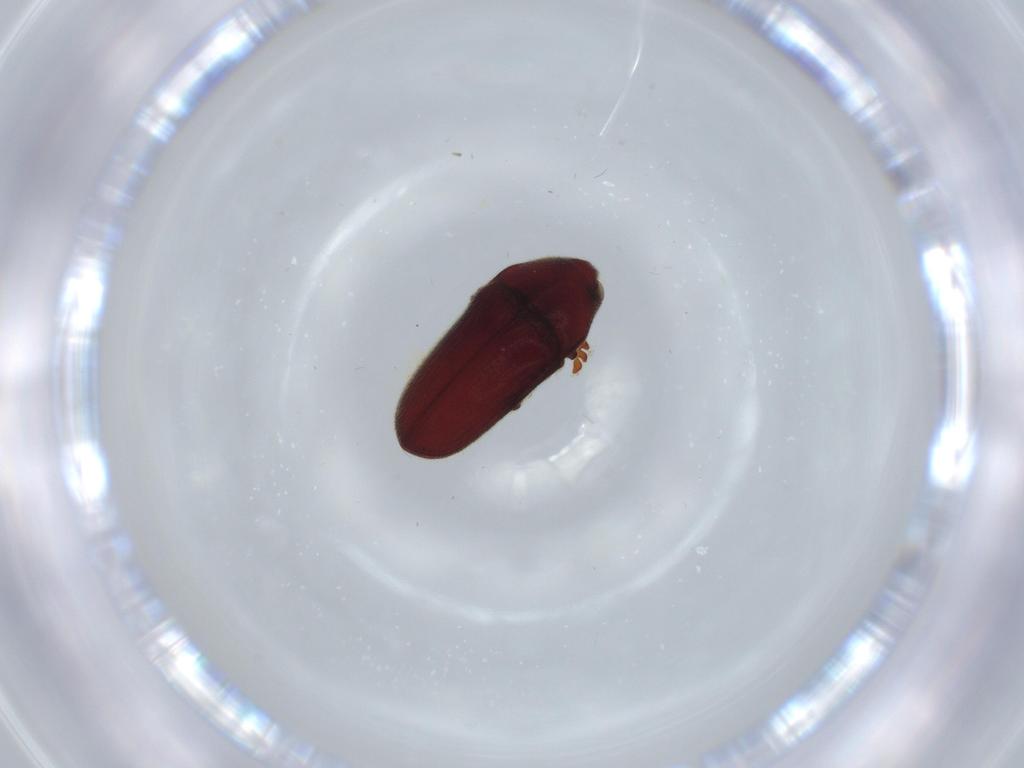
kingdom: Animalia
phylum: Arthropoda
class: Insecta
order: Coleoptera
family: Throscidae
